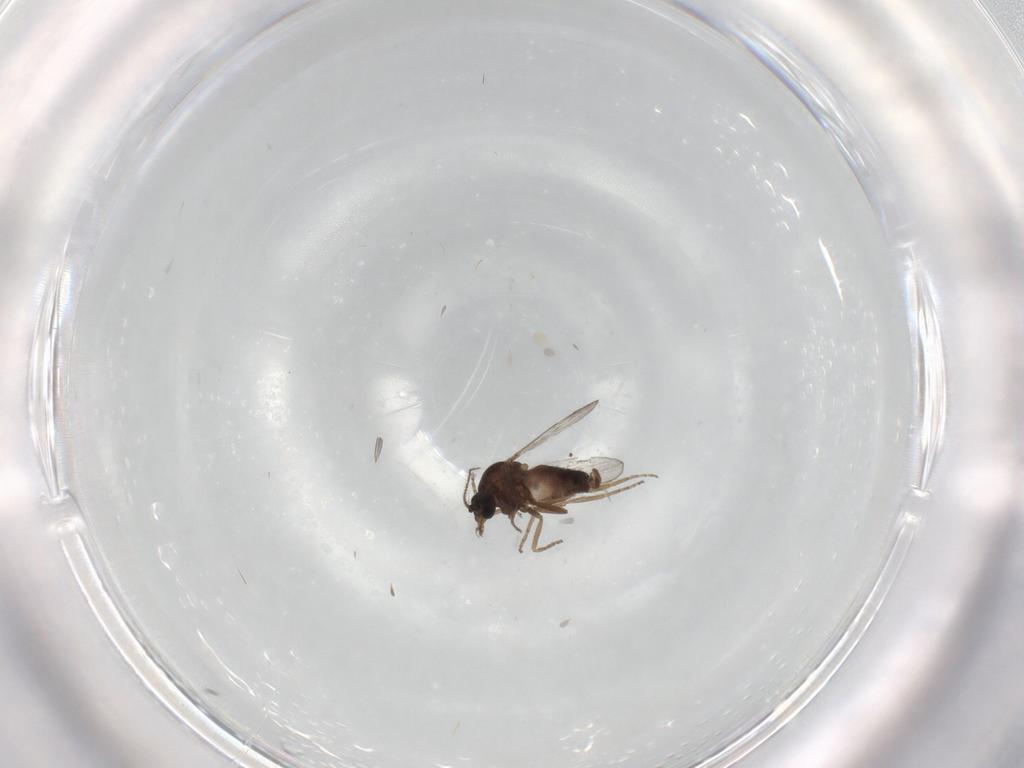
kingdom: Animalia
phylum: Arthropoda
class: Insecta
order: Diptera
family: Ceratopogonidae
